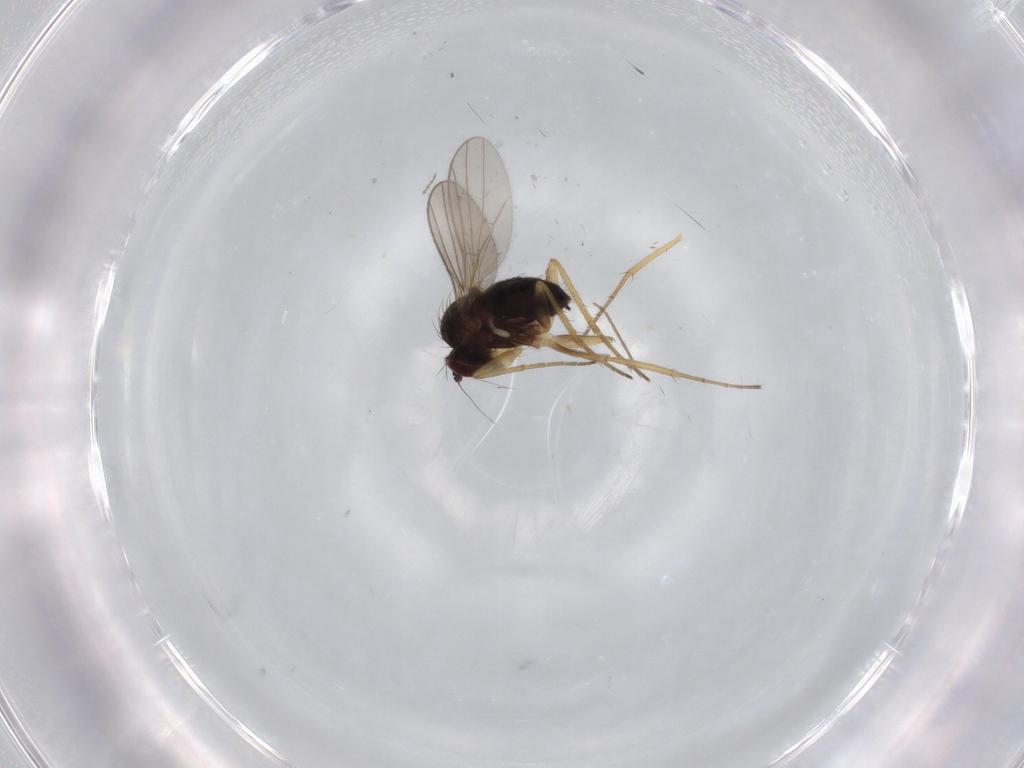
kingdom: Animalia
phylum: Arthropoda
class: Insecta
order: Diptera
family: Dolichopodidae
